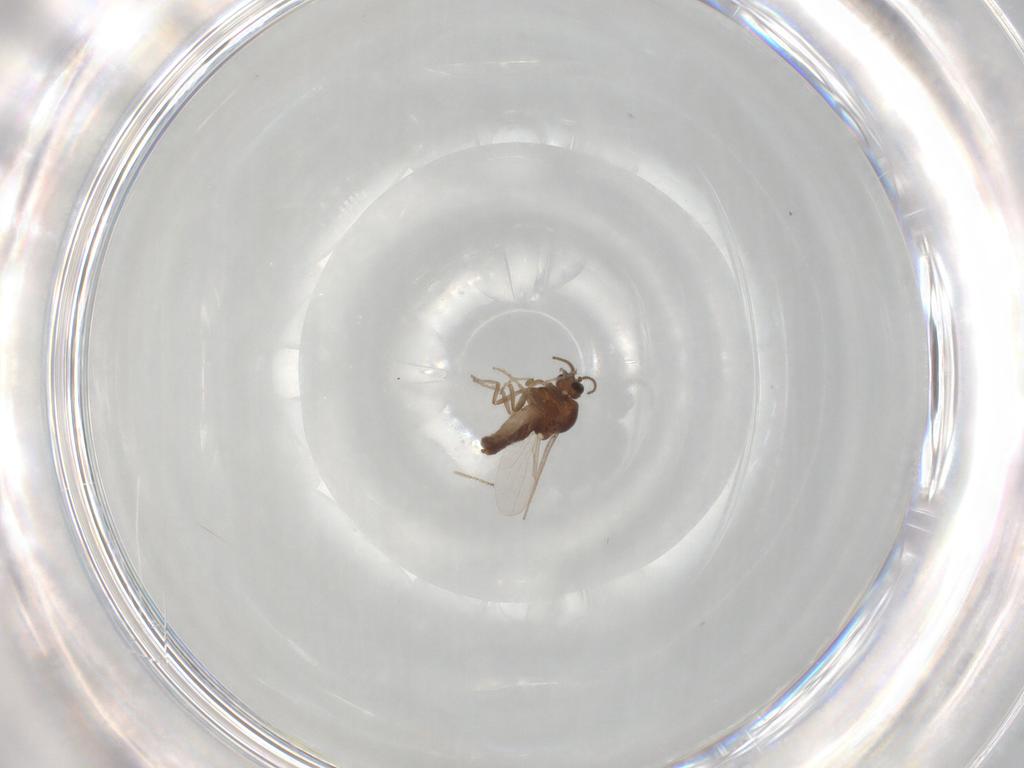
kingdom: Animalia
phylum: Arthropoda
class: Insecta
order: Diptera
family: Ceratopogonidae
